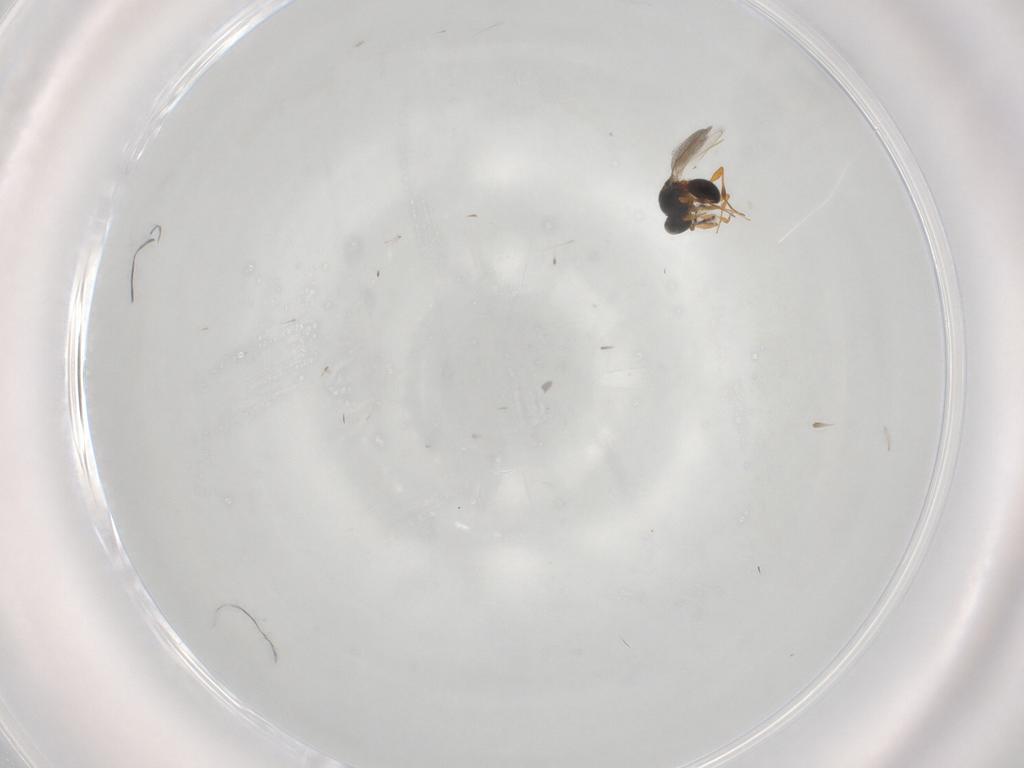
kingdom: Animalia
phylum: Arthropoda
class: Insecta
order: Hymenoptera
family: Platygastridae
